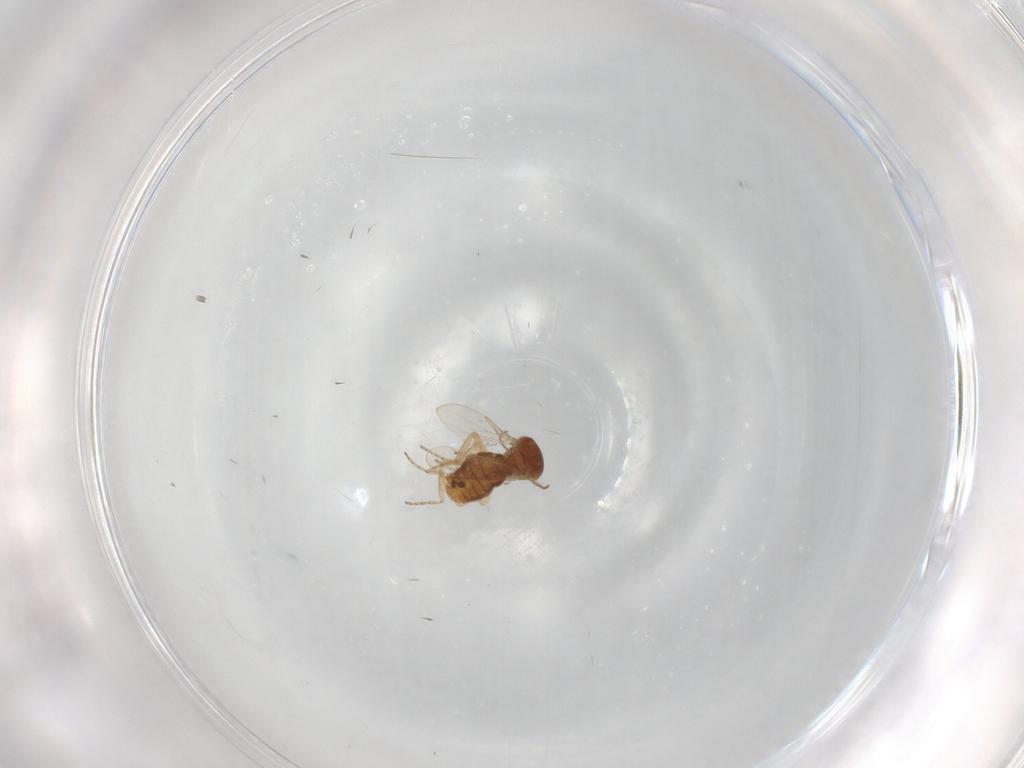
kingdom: Animalia
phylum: Arthropoda
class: Insecta
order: Diptera
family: Ceratopogonidae
